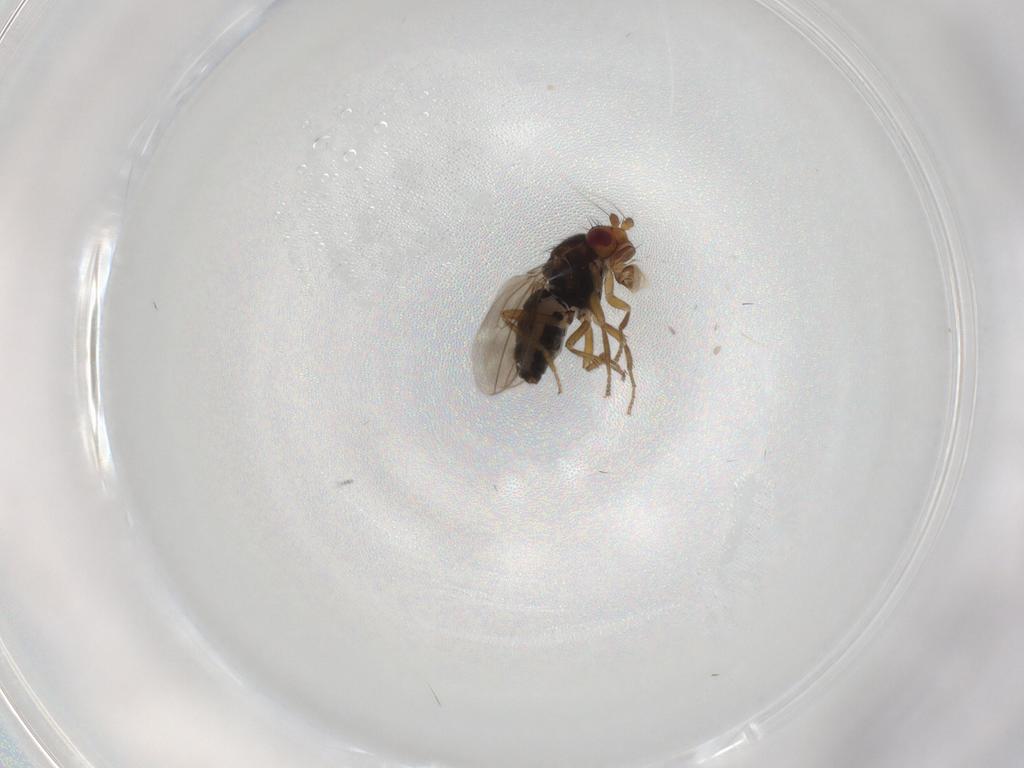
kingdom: Animalia
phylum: Arthropoda
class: Insecta
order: Diptera
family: Sphaeroceridae
